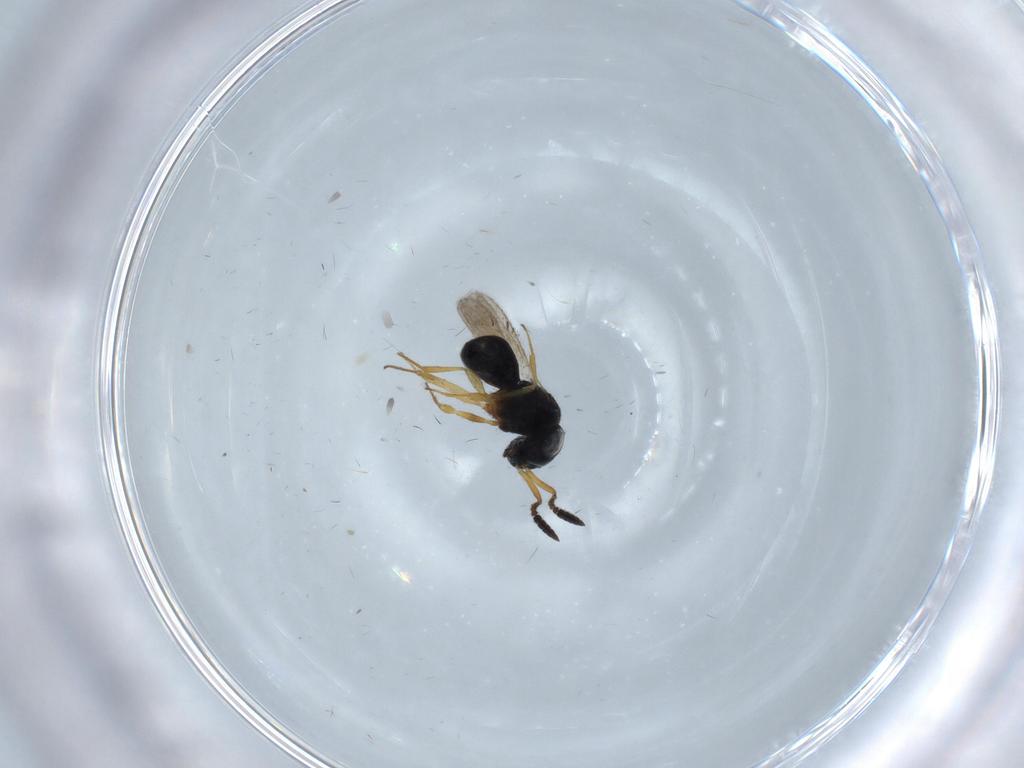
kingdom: Animalia
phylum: Arthropoda
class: Insecta
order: Hymenoptera
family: Scelionidae
